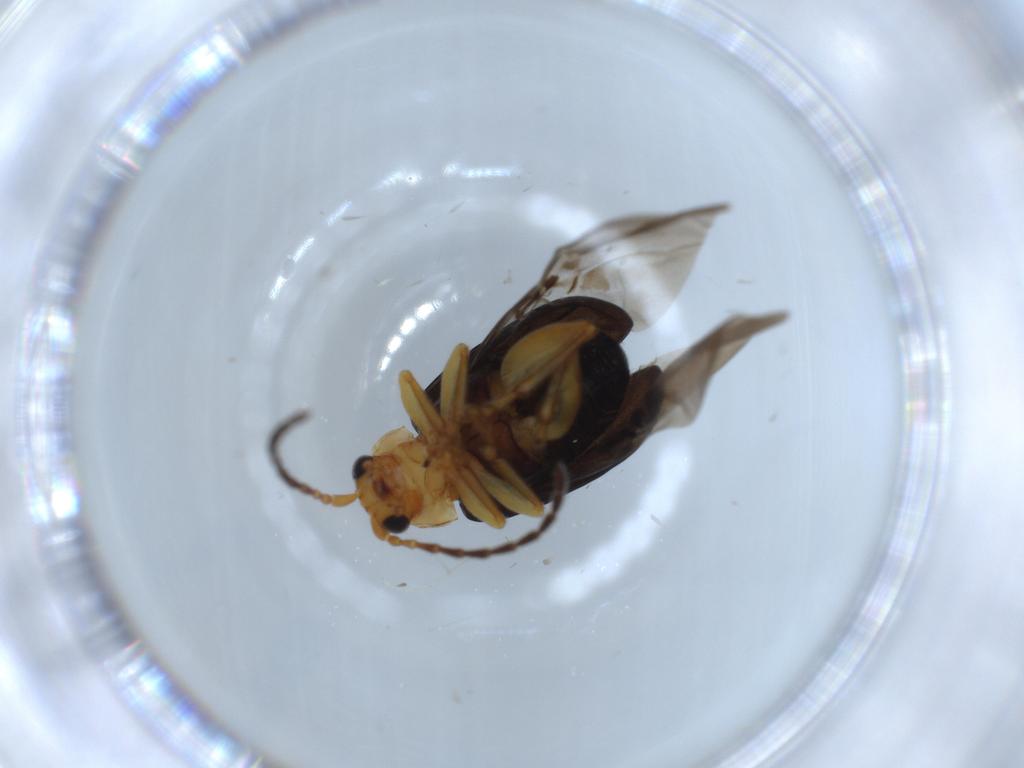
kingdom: Animalia
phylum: Arthropoda
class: Insecta
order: Coleoptera
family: Chrysomelidae
